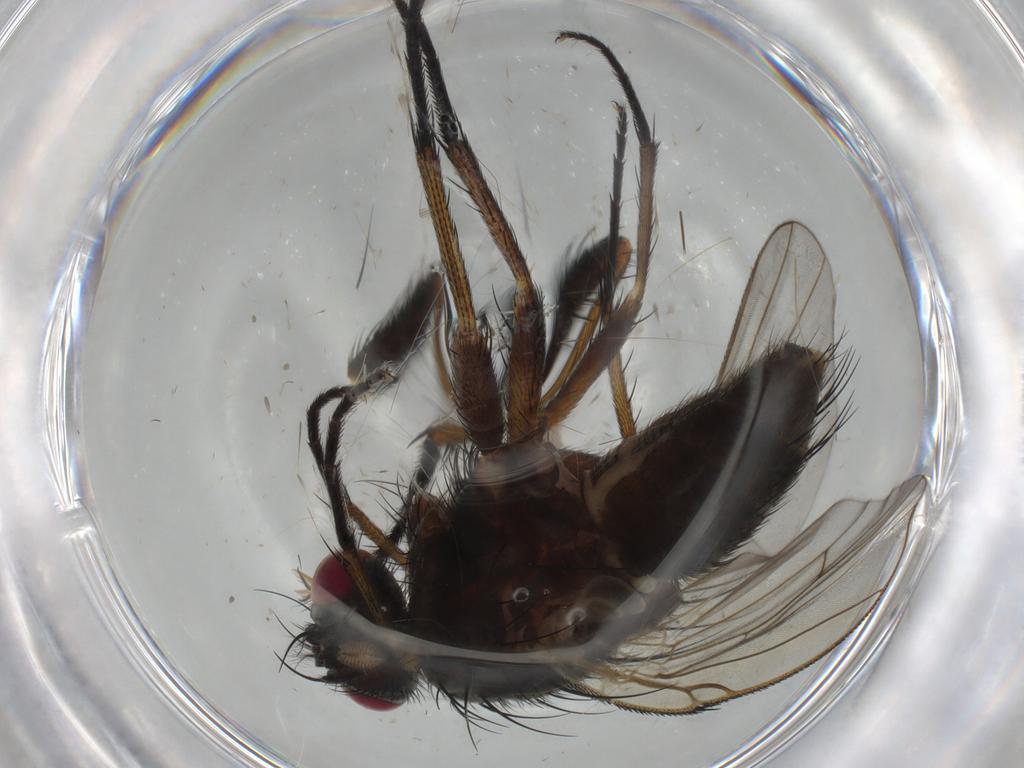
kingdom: Animalia
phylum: Arthropoda
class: Insecta
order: Diptera
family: Muscidae
